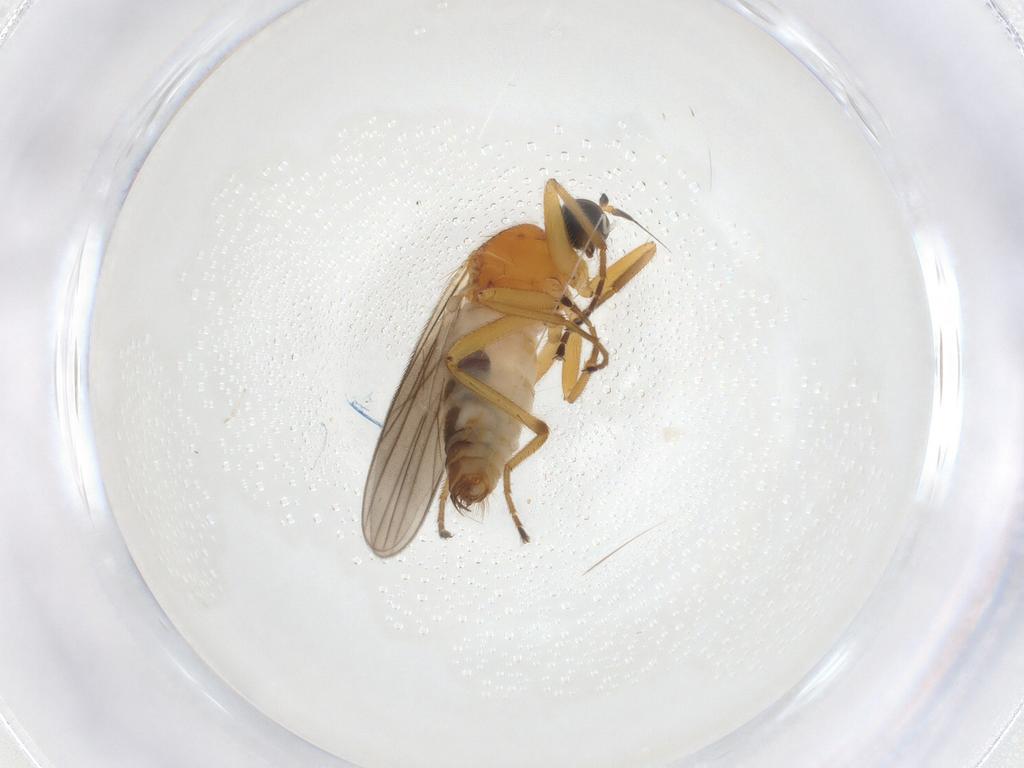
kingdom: Animalia
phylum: Arthropoda
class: Insecta
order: Diptera
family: Hybotidae
